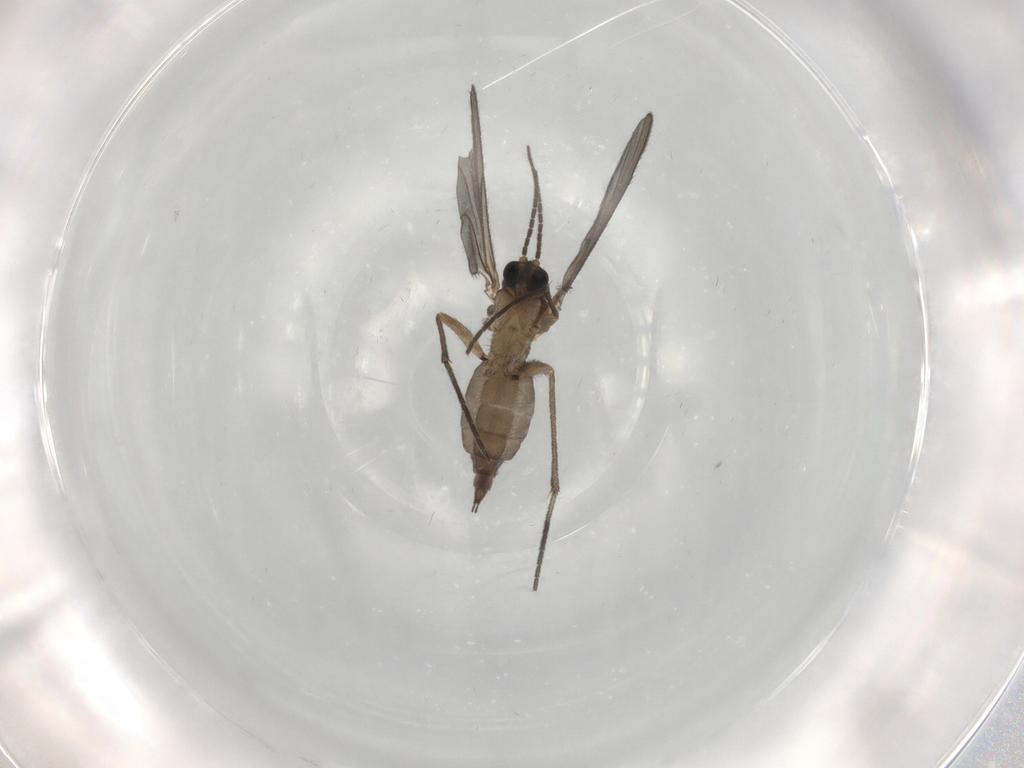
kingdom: Animalia
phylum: Arthropoda
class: Insecta
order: Diptera
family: Sciaridae
